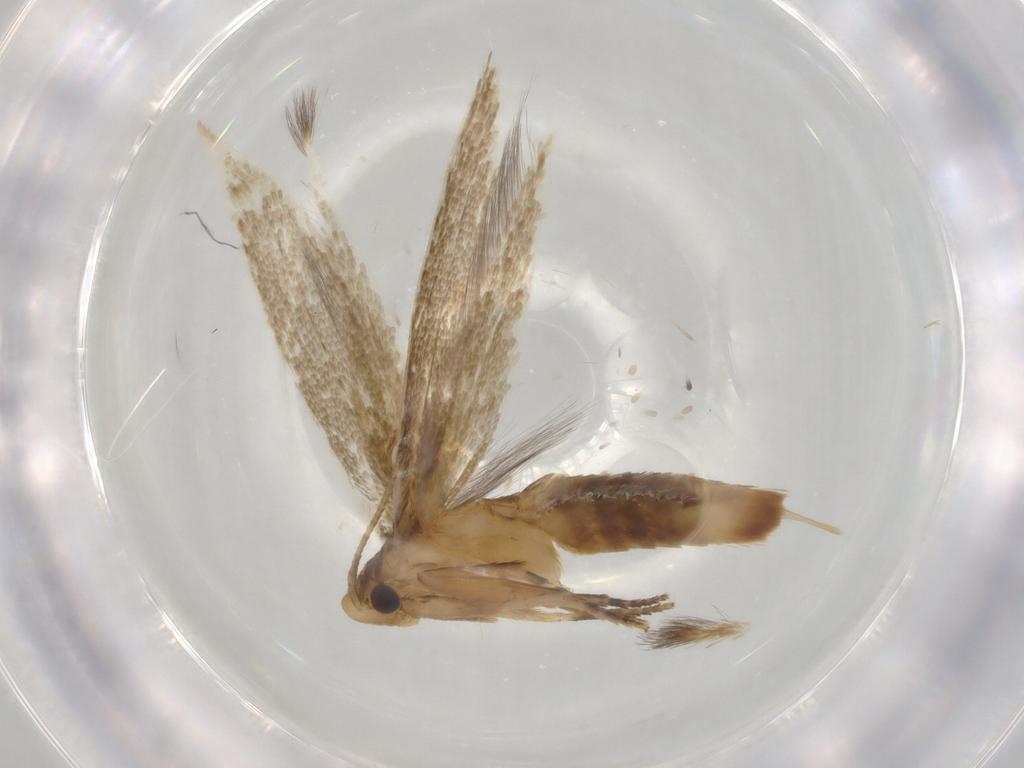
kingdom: Animalia
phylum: Arthropoda
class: Insecta
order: Lepidoptera
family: Tineidae
